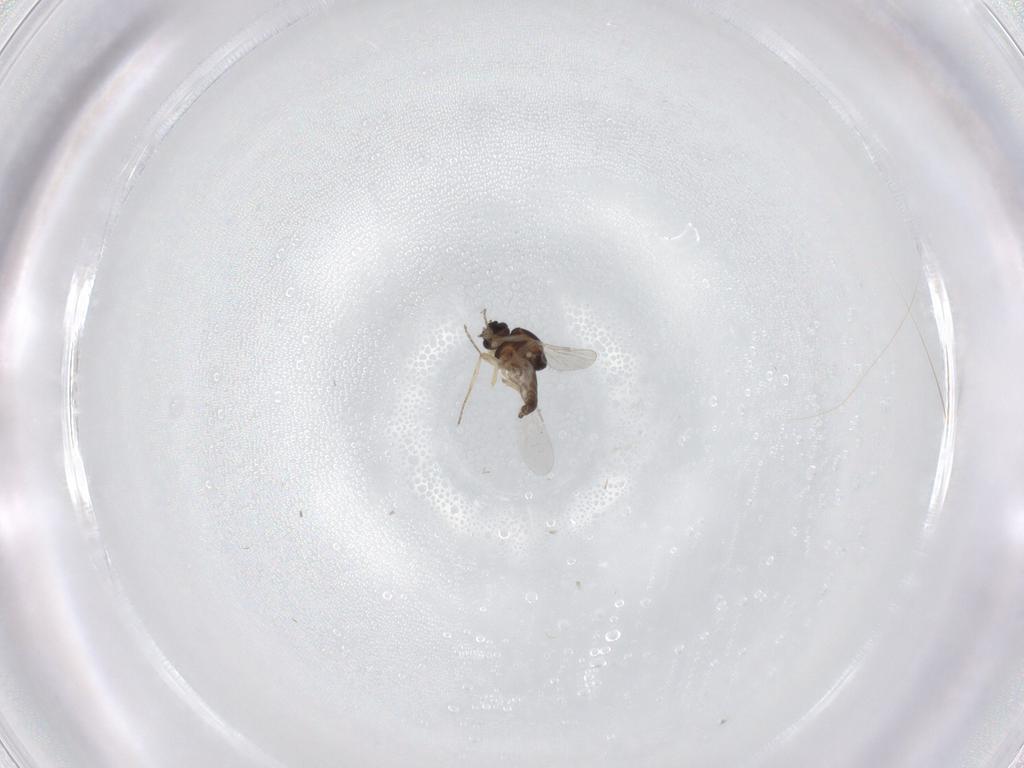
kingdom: Animalia
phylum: Arthropoda
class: Insecta
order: Diptera
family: Ceratopogonidae
